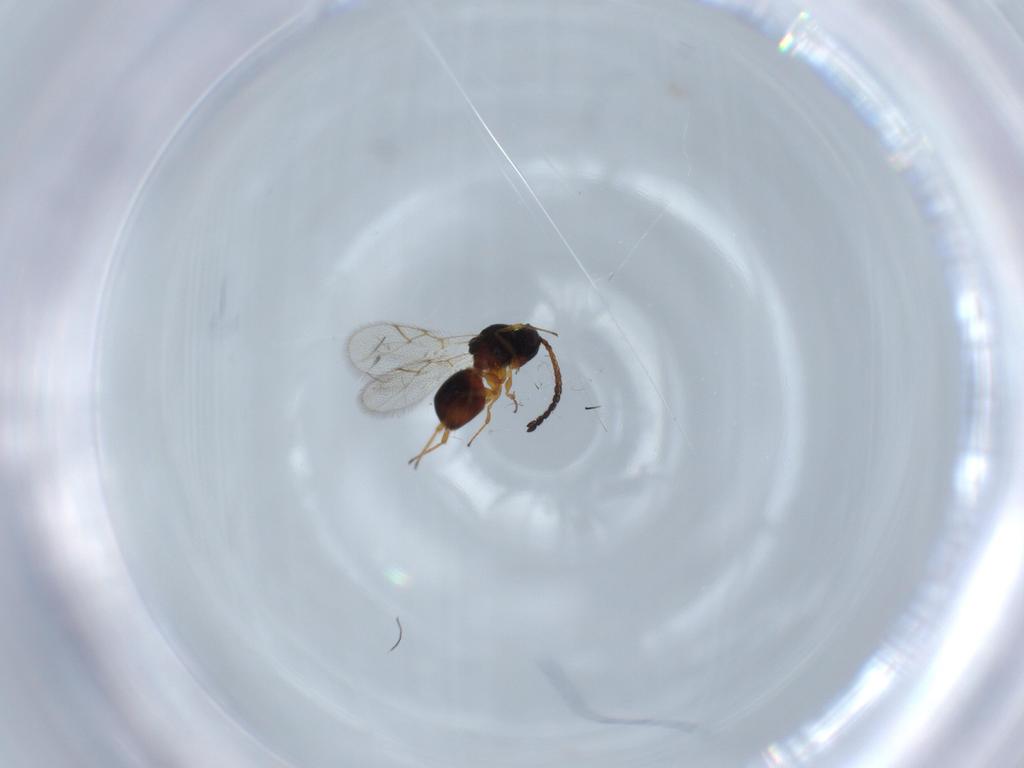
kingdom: Animalia
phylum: Arthropoda
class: Insecta
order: Hymenoptera
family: Figitidae
